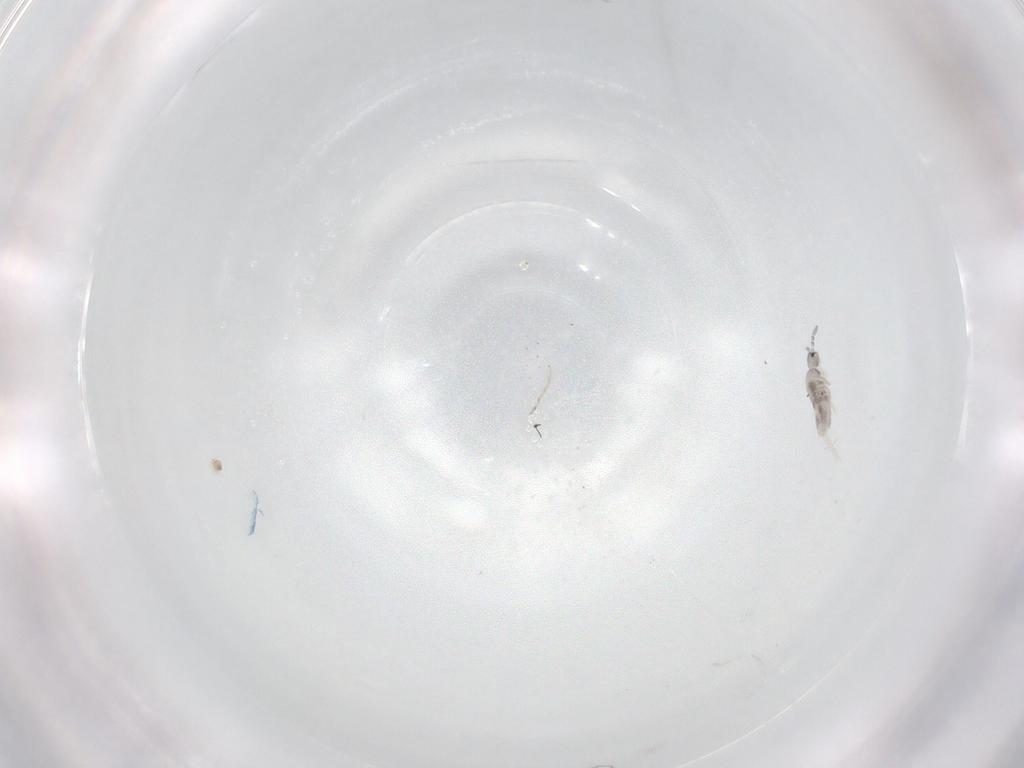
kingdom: Animalia
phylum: Arthropoda
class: Collembola
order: Entomobryomorpha
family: Entomobryidae
